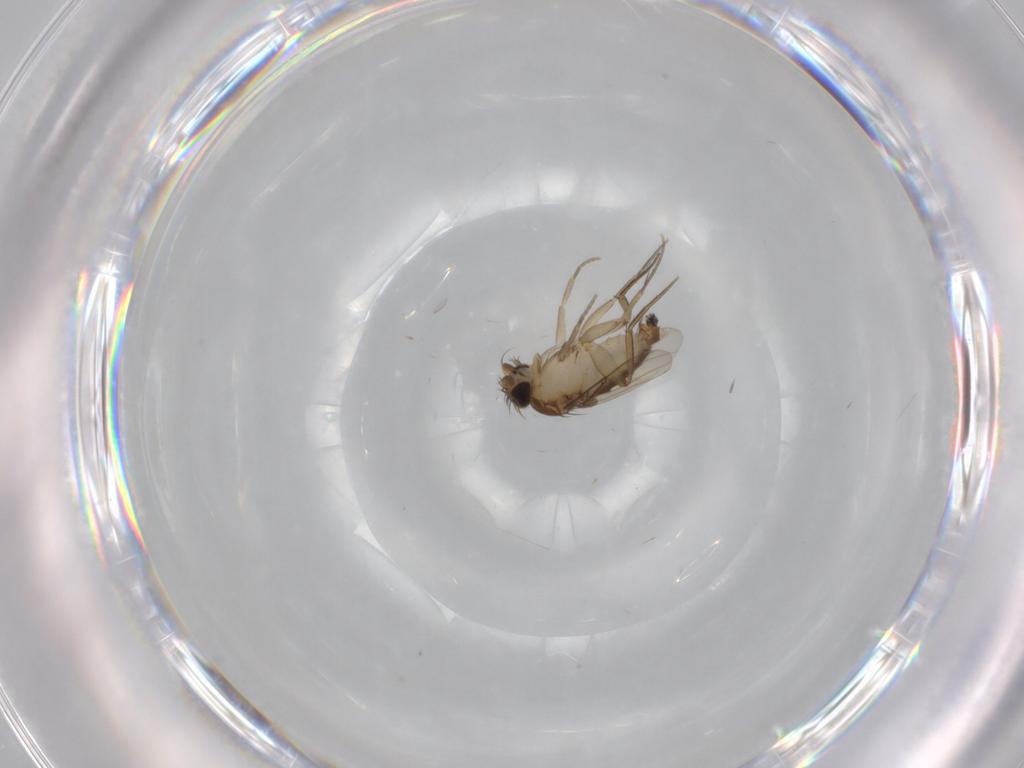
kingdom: Animalia
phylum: Arthropoda
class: Insecta
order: Diptera
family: Phoridae
